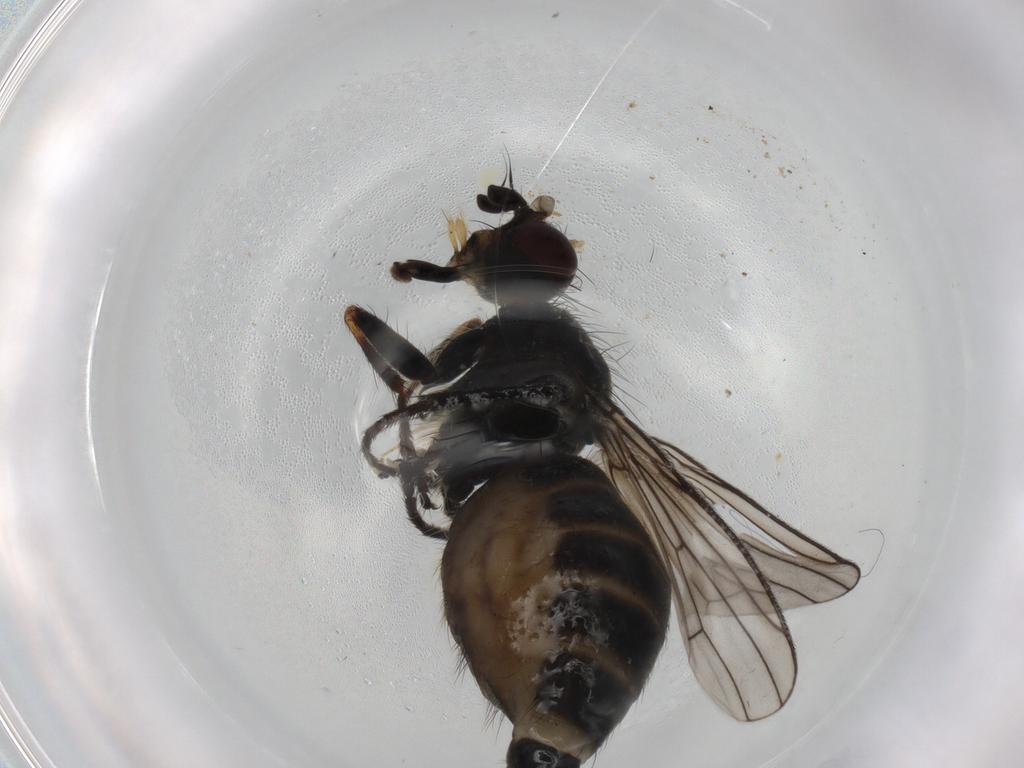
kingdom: Animalia
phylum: Arthropoda
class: Insecta
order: Diptera
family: Scathophagidae
